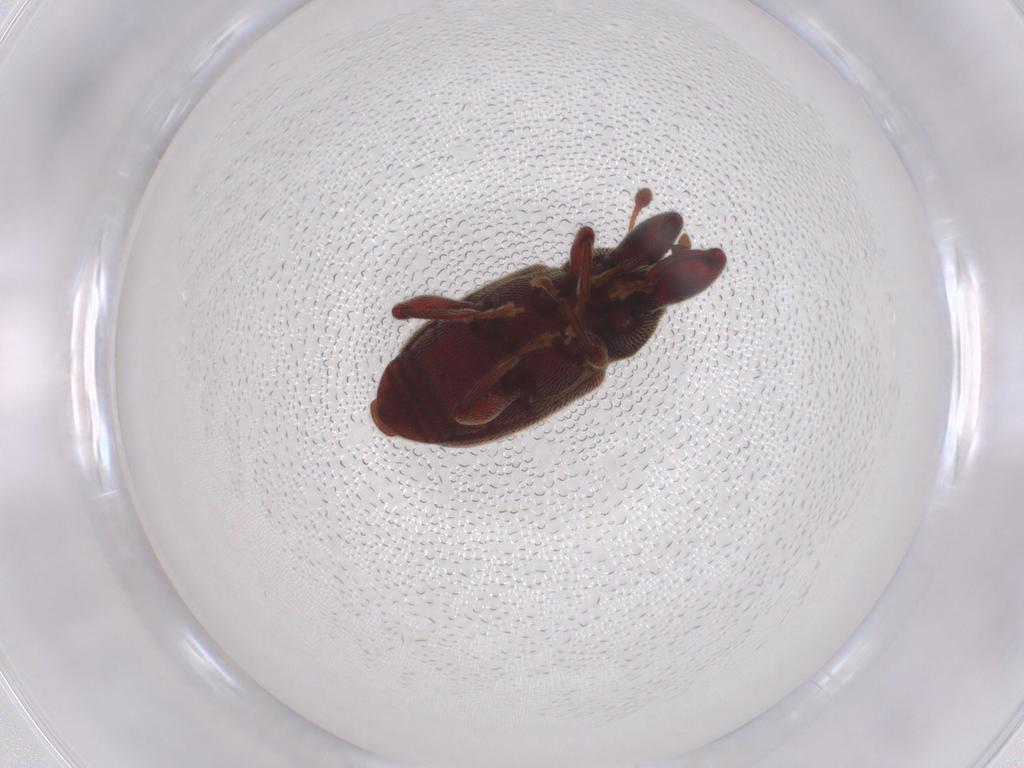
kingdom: Animalia
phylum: Arthropoda
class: Insecta
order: Coleoptera
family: Curculionidae
